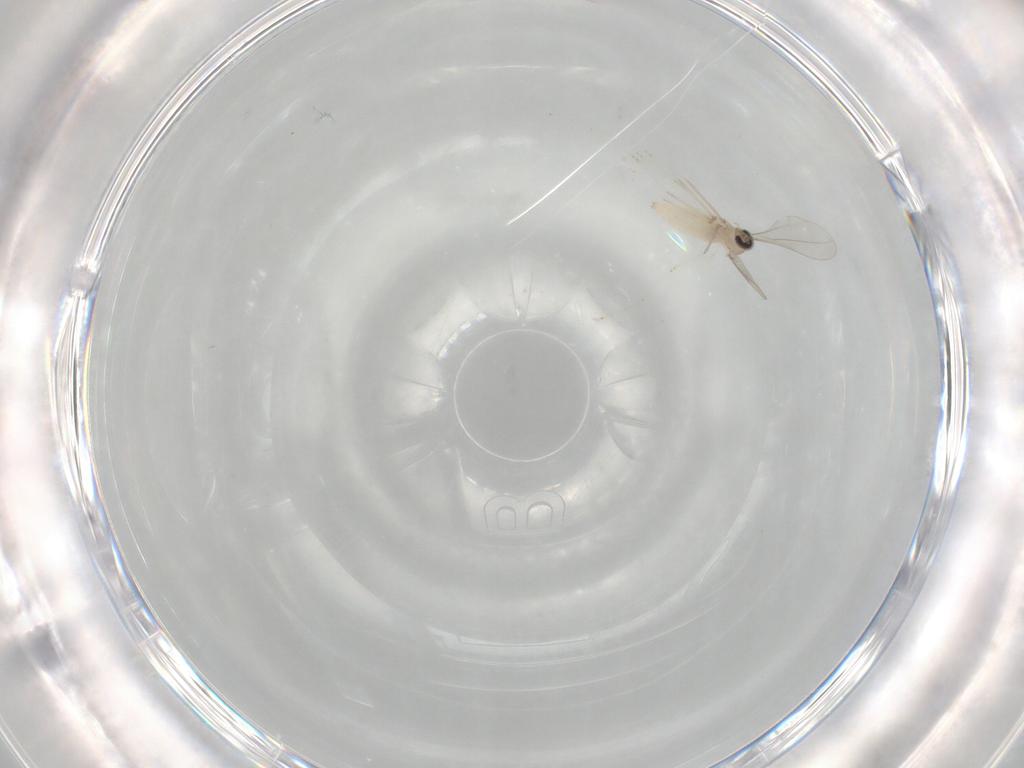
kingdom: Animalia
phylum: Arthropoda
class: Insecta
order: Diptera
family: Cecidomyiidae
